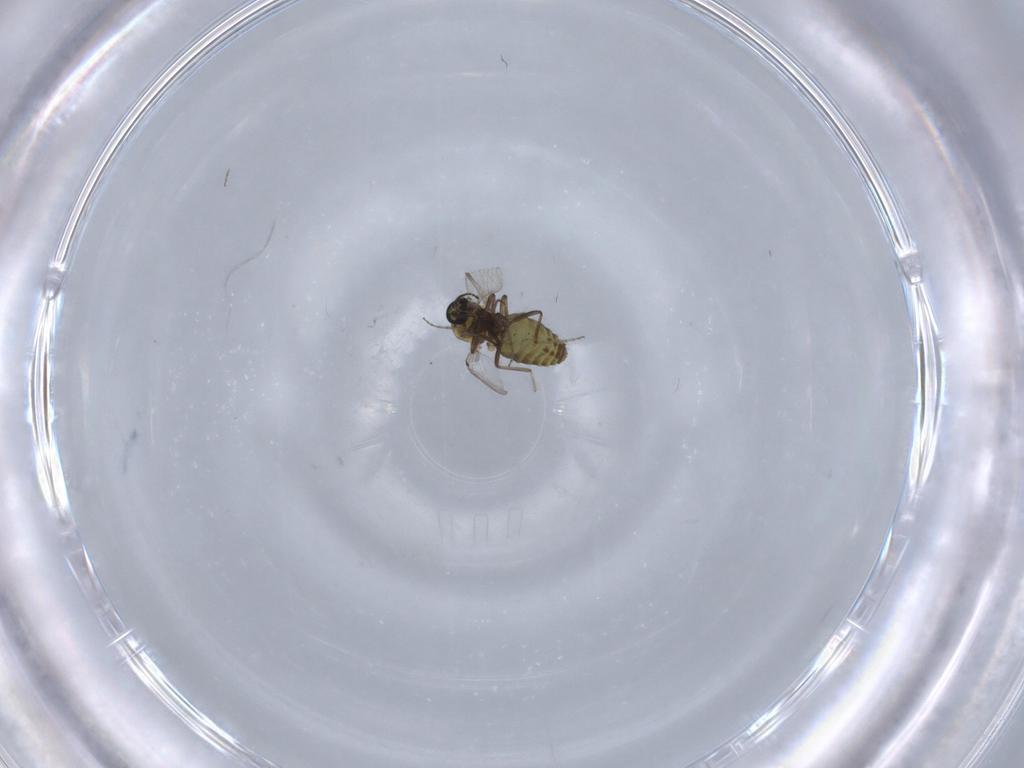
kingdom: Animalia
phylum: Arthropoda
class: Insecta
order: Diptera
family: Ceratopogonidae
